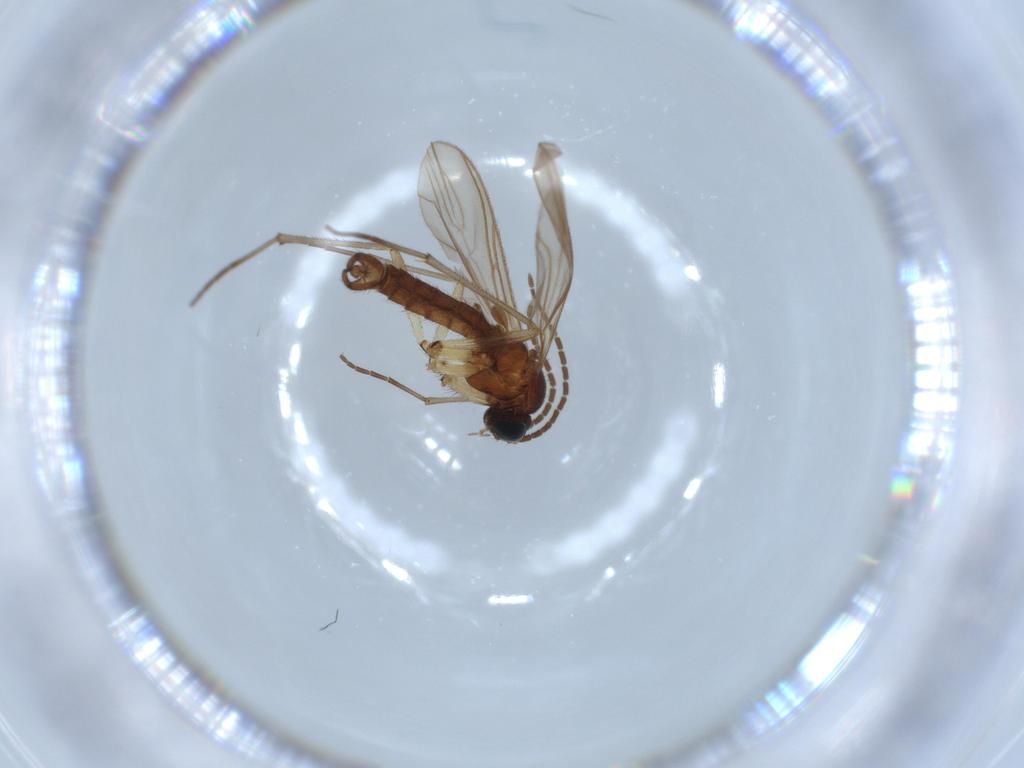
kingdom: Animalia
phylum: Arthropoda
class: Insecta
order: Diptera
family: Sciaridae
